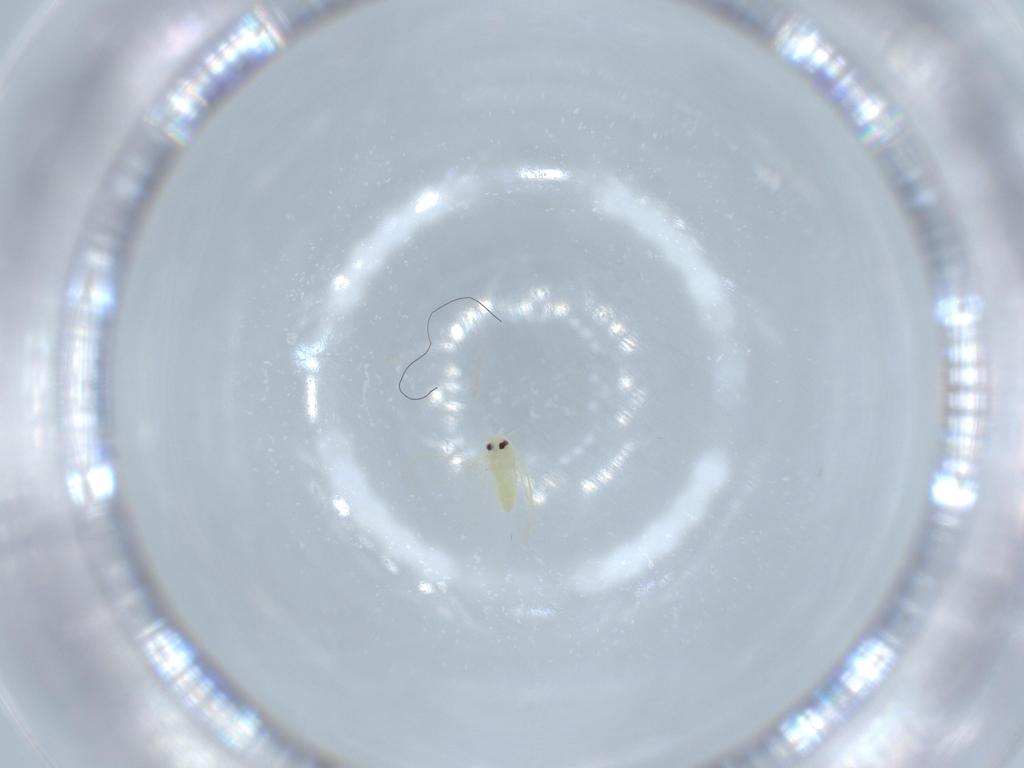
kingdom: Animalia
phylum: Arthropoda
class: Insecta
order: Hemiptera
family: Aleyrodidae
